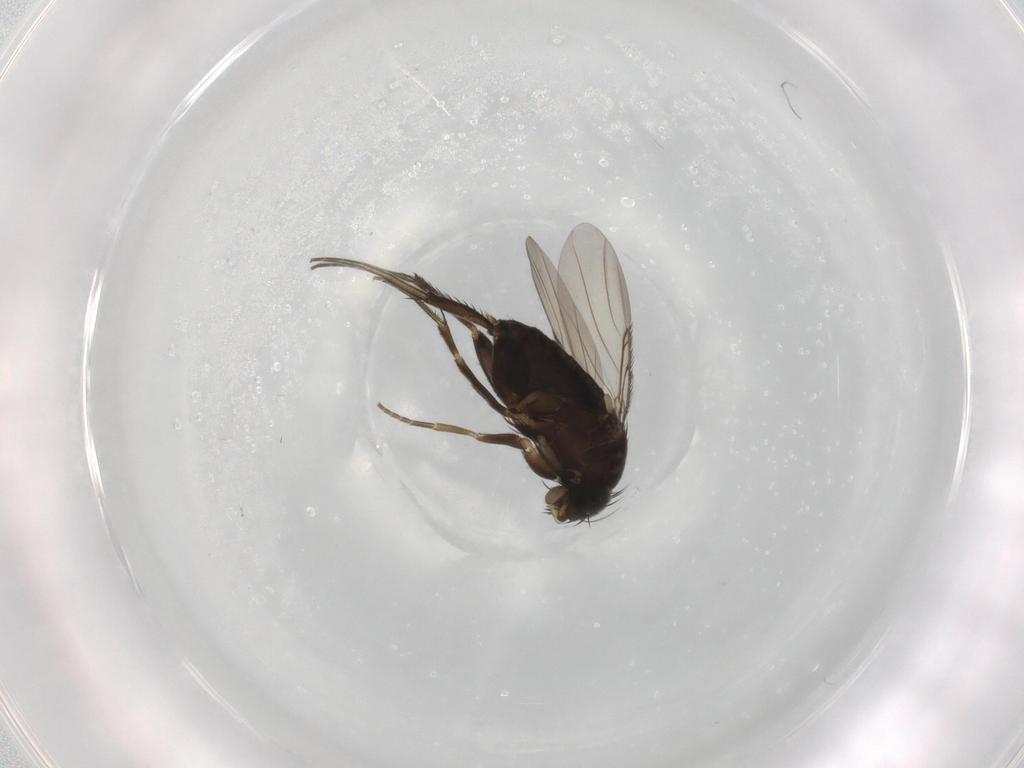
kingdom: Animalia
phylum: Arthropoda
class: Insecta
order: Diptera
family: Phoridae
